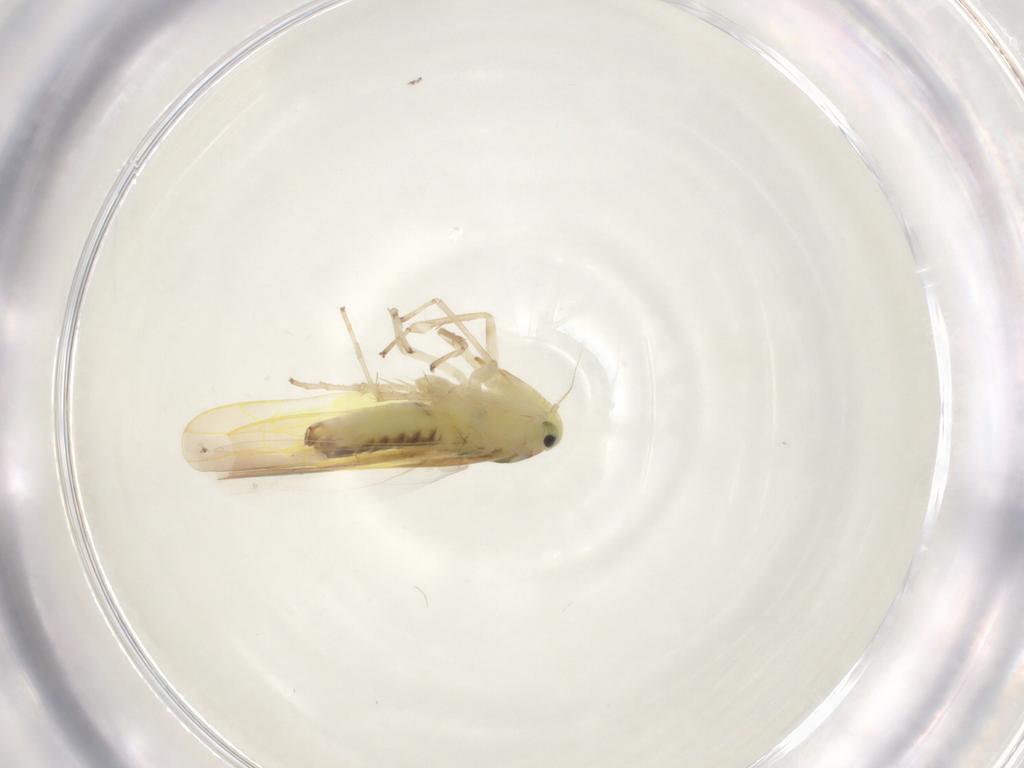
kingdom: Animalia
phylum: Arthropoda
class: Insecta
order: Hemiptera
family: Cicadellidae
